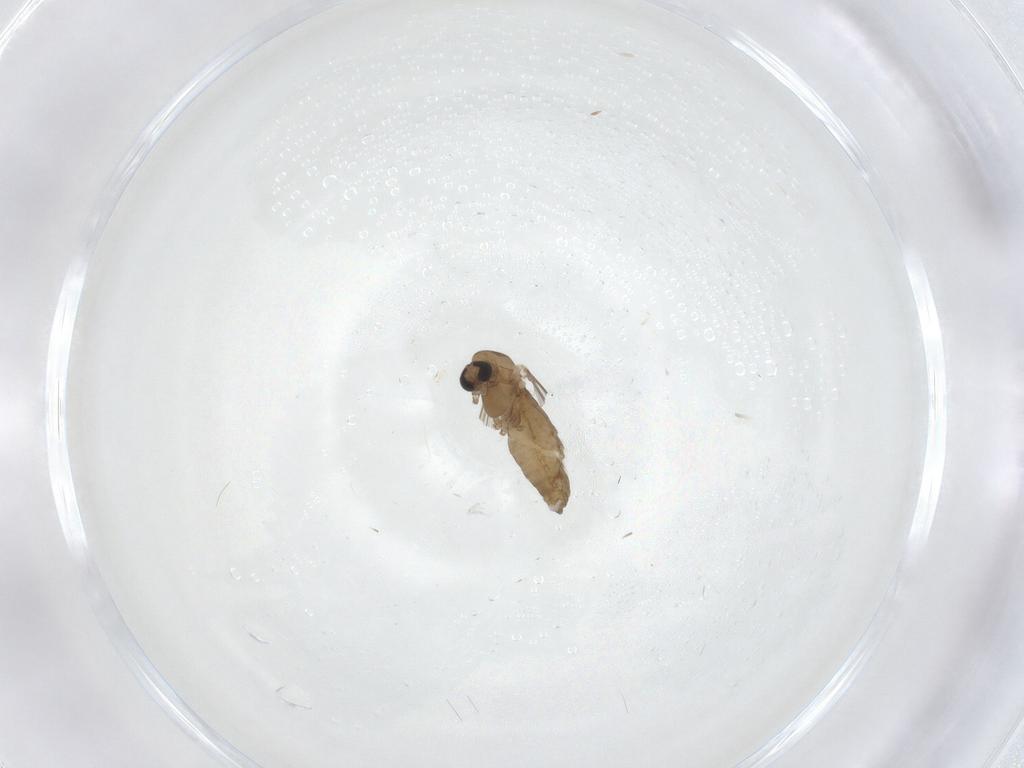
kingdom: Animalia
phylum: Arthropoda
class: Insecta
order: Diptera
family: Chironomidae
